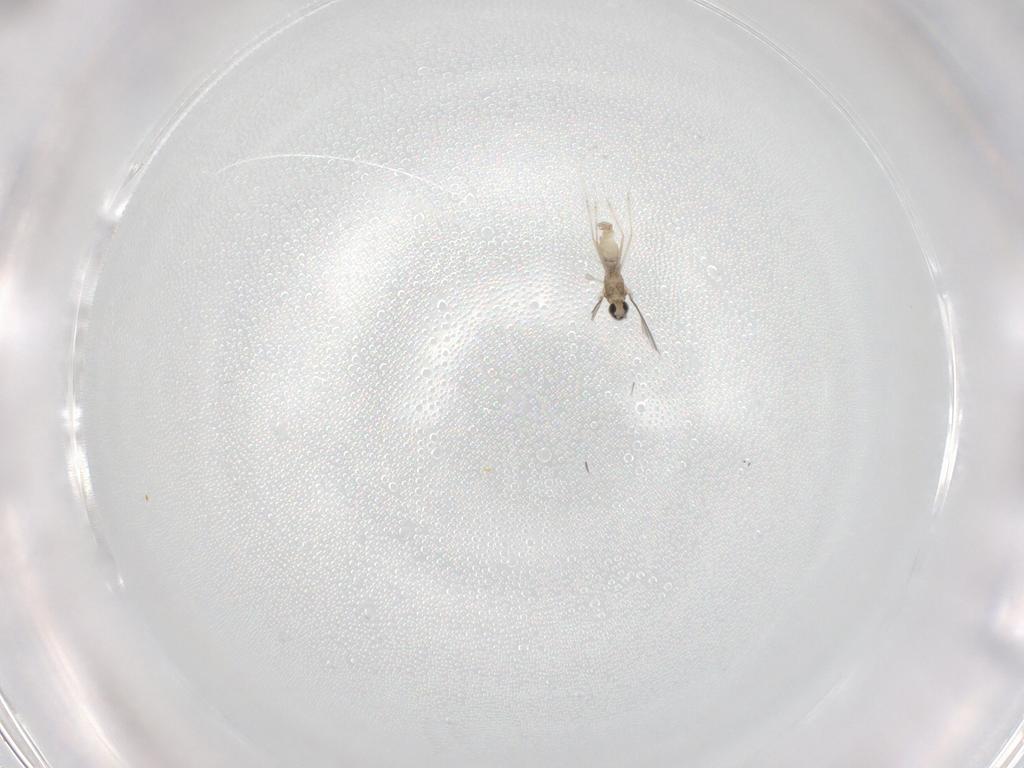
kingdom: Animalia
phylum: Arthropoda
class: Insecta
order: Diptera
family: Cecidomyiidae
